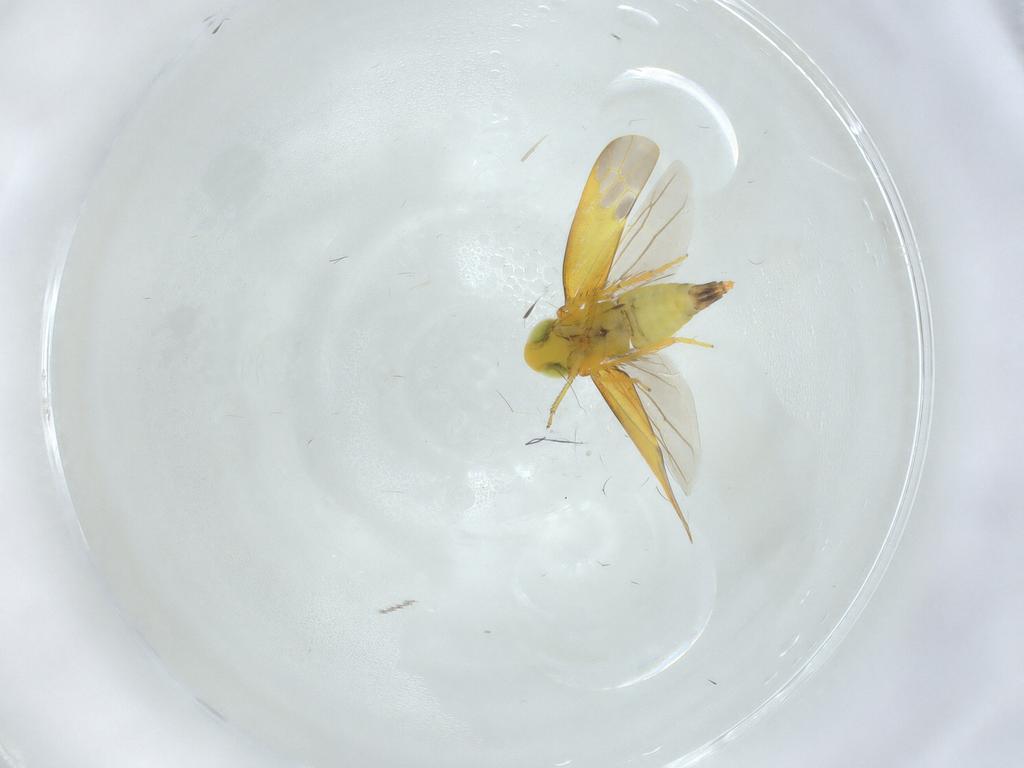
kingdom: Animalia
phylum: Arthropoda
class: Insecta
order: Hemiptera
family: Cicadellidae
